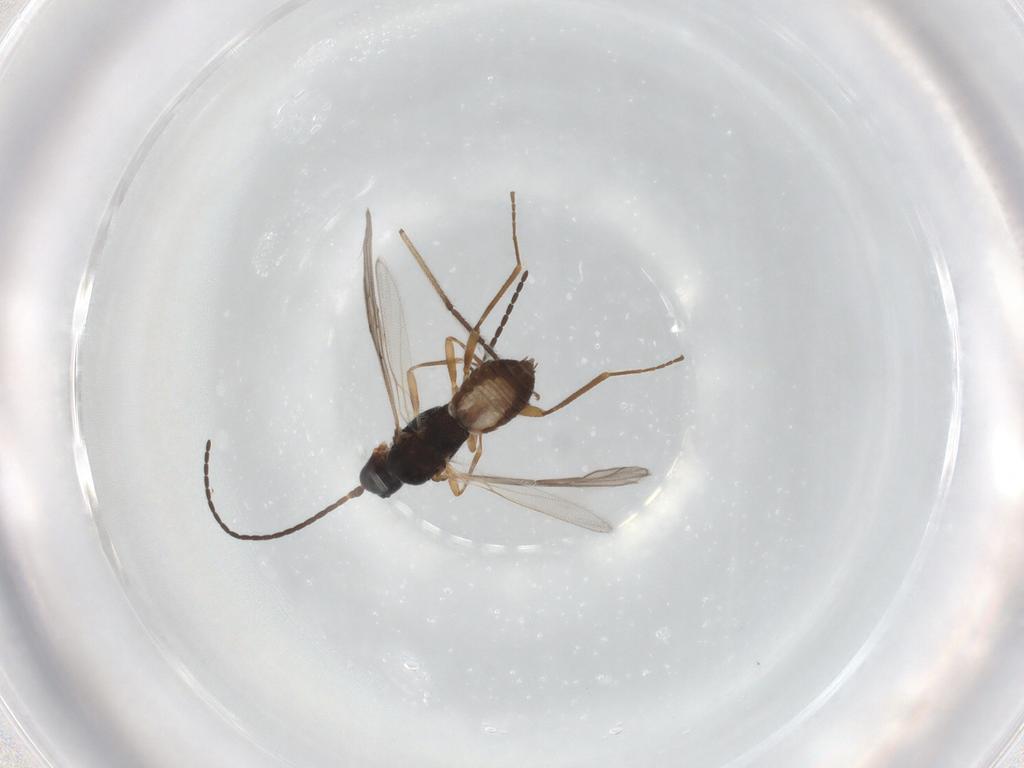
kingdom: Animalia
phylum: Arthropoda
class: Insecta
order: Hymenoptera
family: Braconidae
